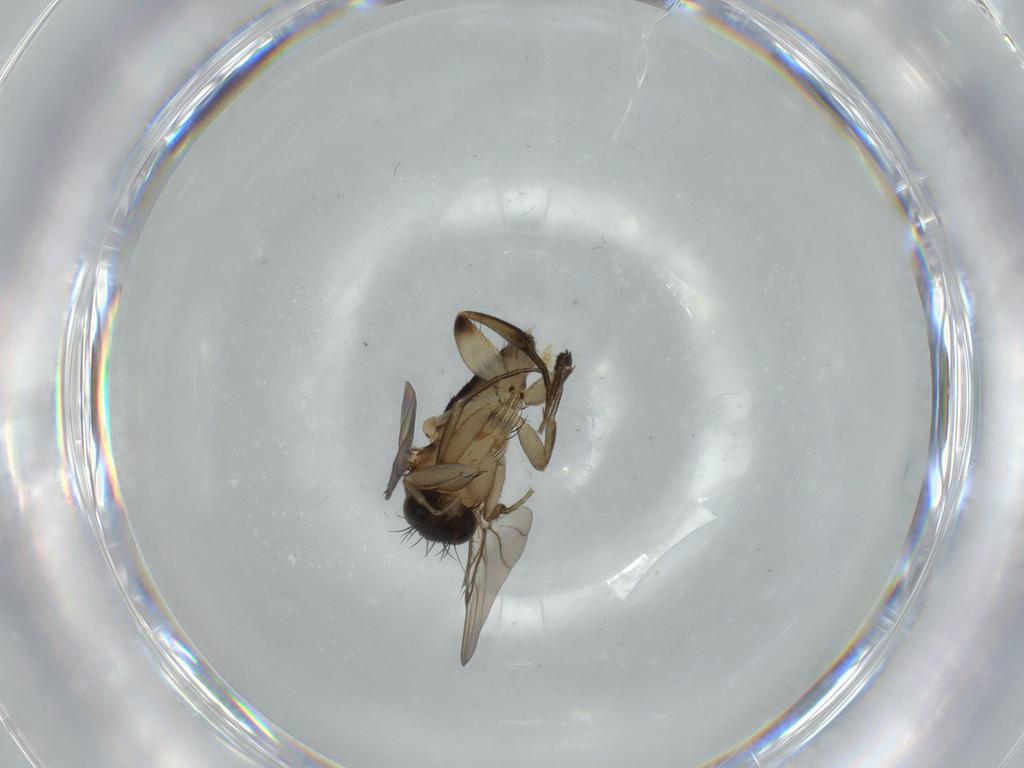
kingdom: Animalia
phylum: Arthropoda
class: Insecta
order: Diptera
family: Phoridae
